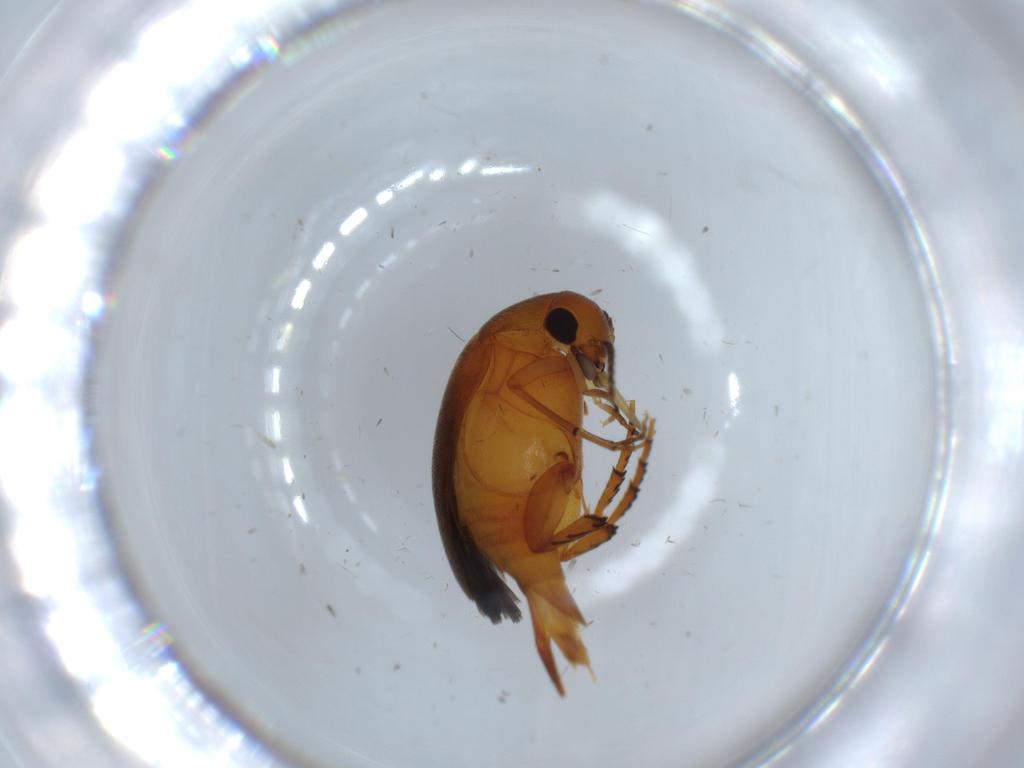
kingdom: Animalia
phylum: Arthropoda
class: Insecta
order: Coleoptera
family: Mordellidae
